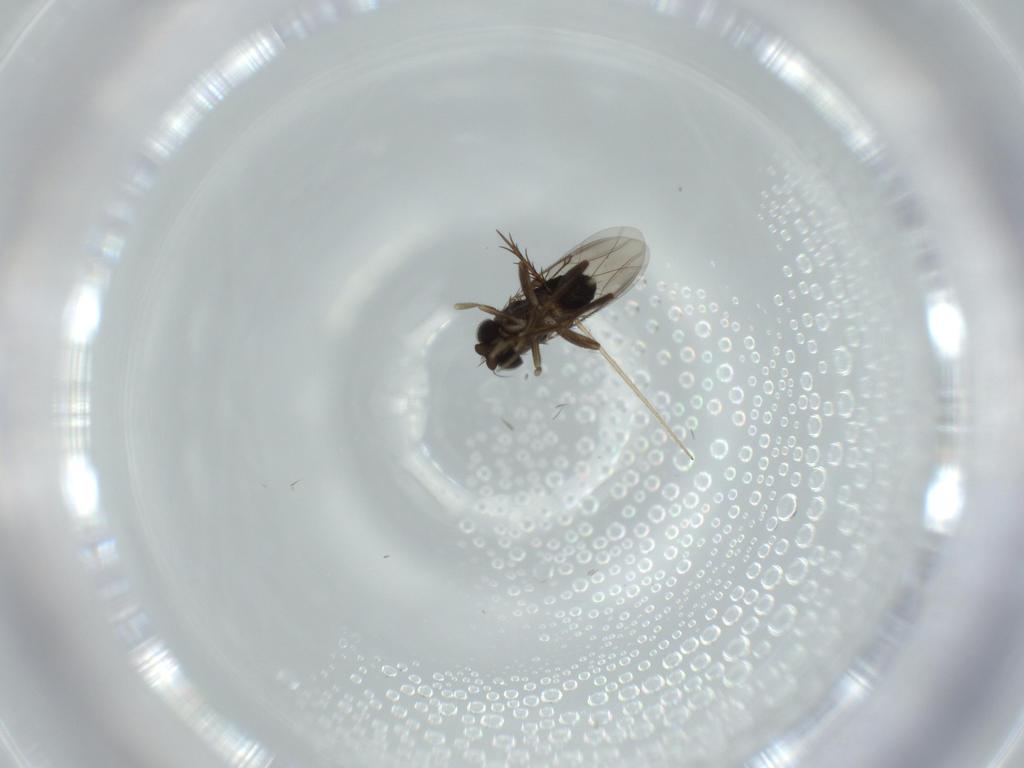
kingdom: Animalia
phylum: Arthropoda
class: Insecta
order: Diptera
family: Phoridae
